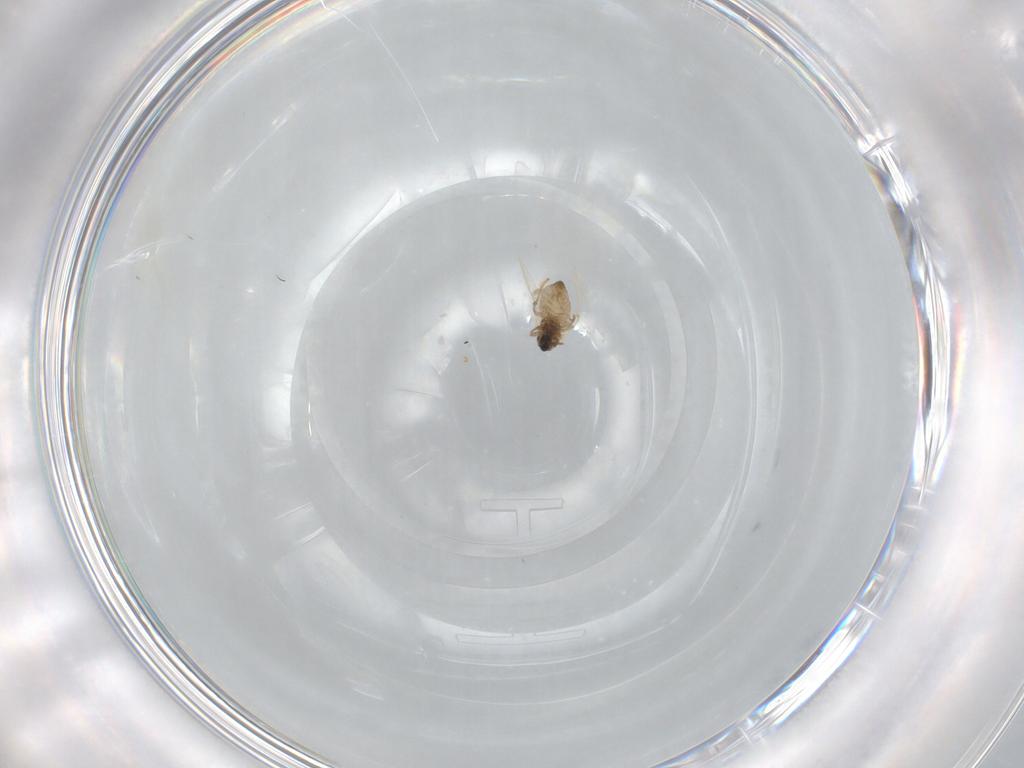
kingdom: Animalia
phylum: Arthropoda
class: Insecta
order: Diptera
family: Cecidomyiidae
